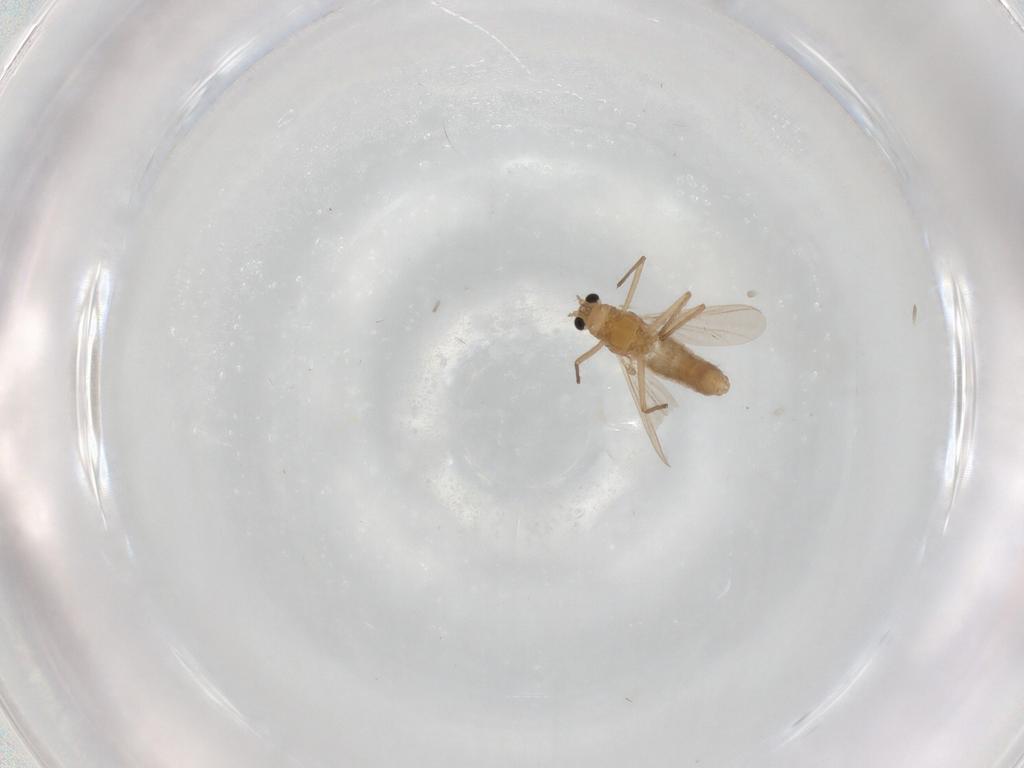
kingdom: Animalia
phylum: Arthropoda
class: Insecta
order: Diptera
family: Chironomidae
